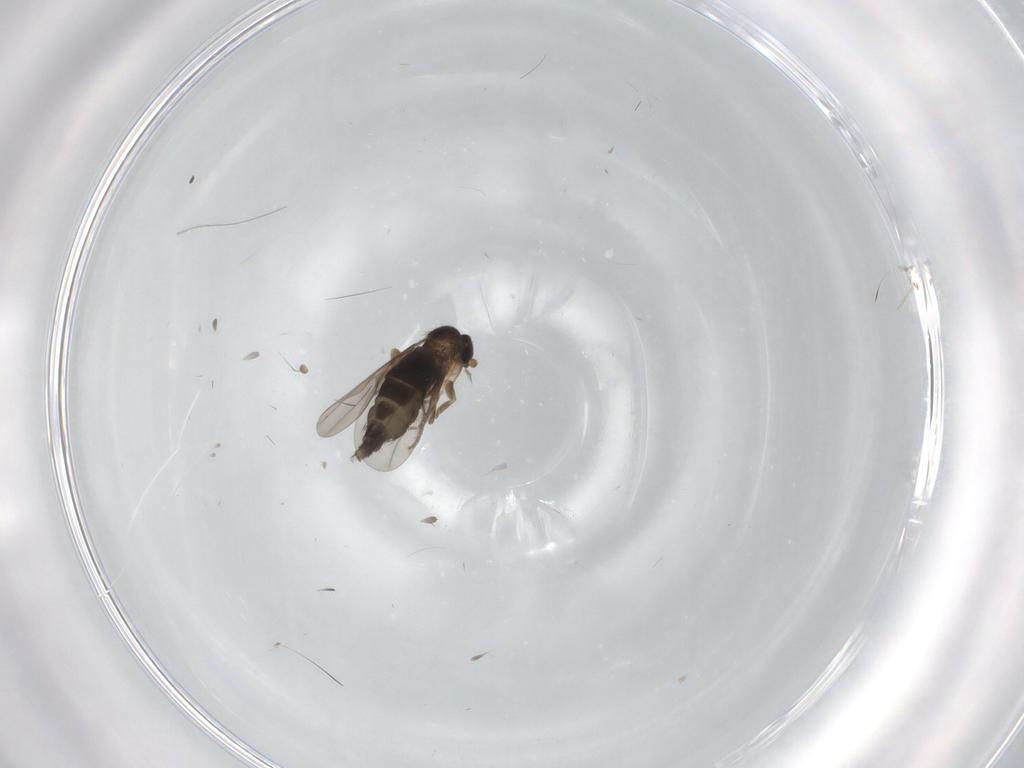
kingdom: Animalia
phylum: Arthropoda
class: Insecta
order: Diptera
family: Phoridae
